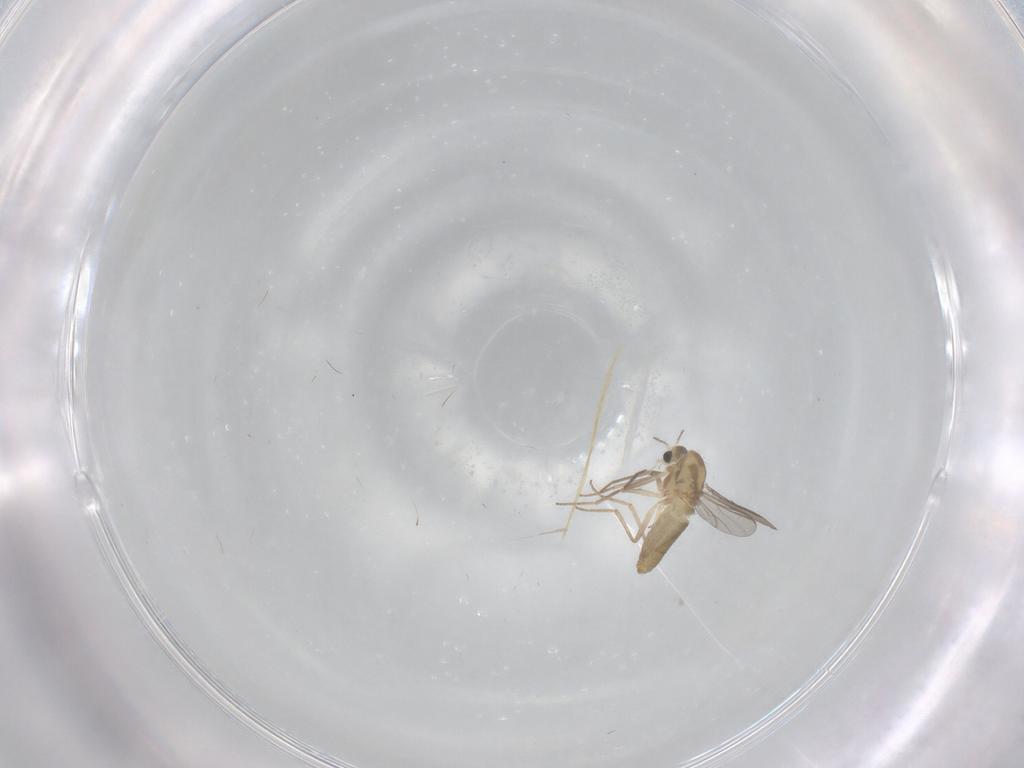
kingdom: Animalia
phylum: Arthropoda
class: Insecta
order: Diptera
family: Chironomidae
